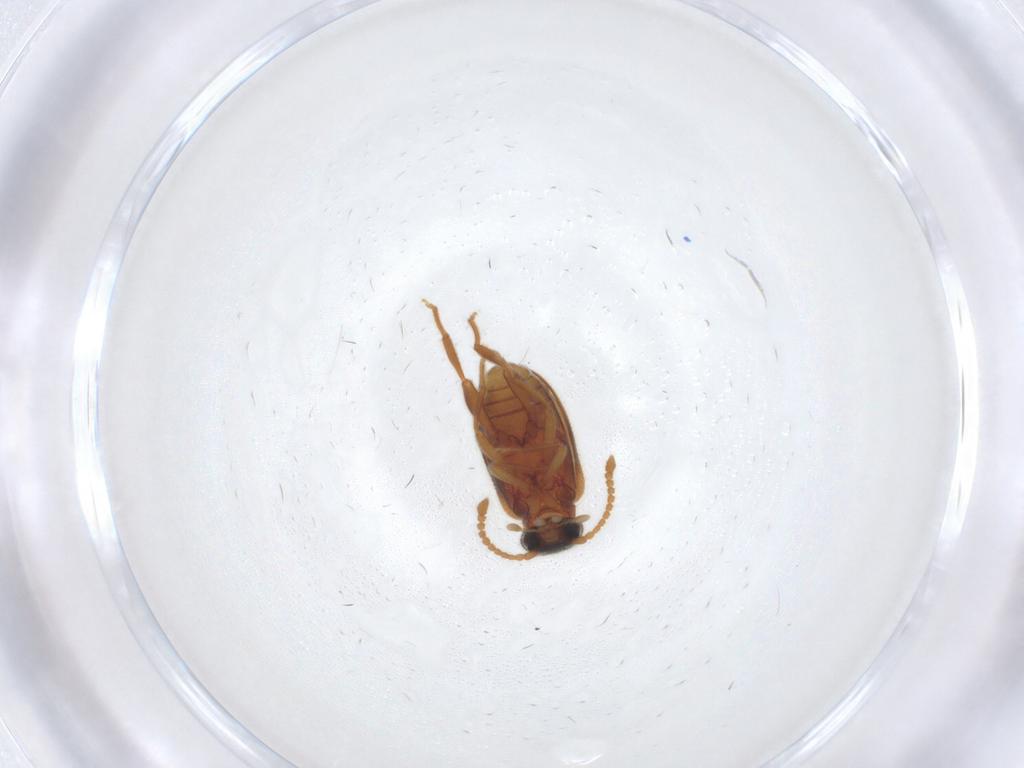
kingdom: Animalia
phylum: Arthropoda
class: Insecta
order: Coleoptera
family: Aderidae
